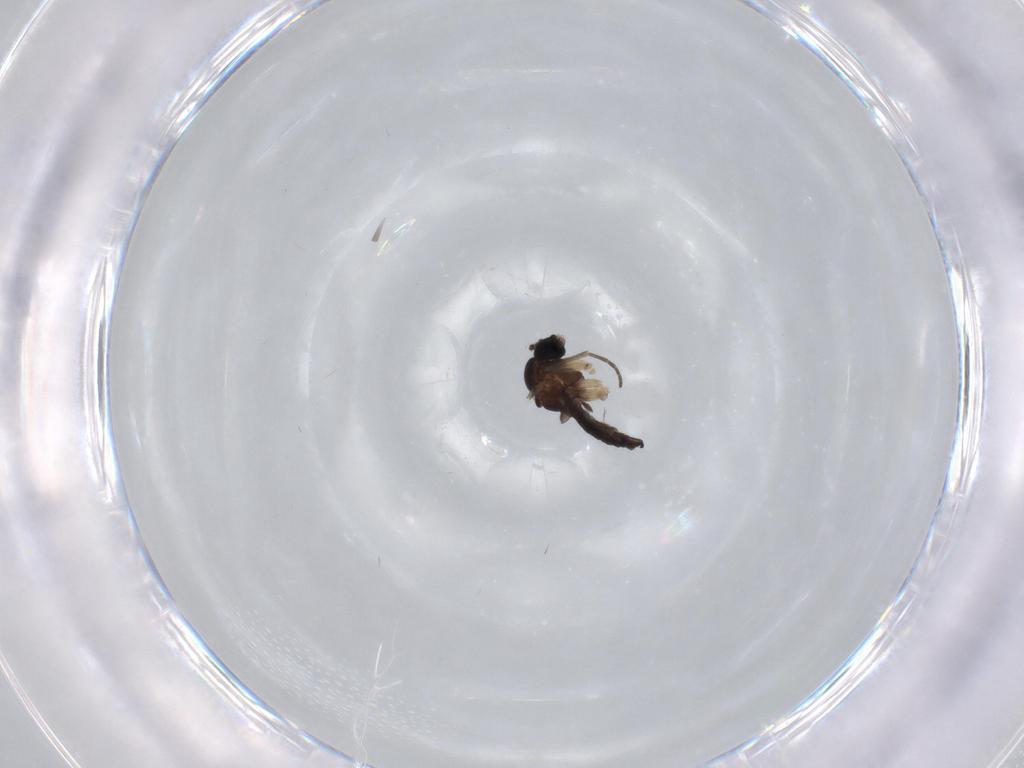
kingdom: Animalia
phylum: Arthropoda
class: Insecta
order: Diptera
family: Sciaridae
